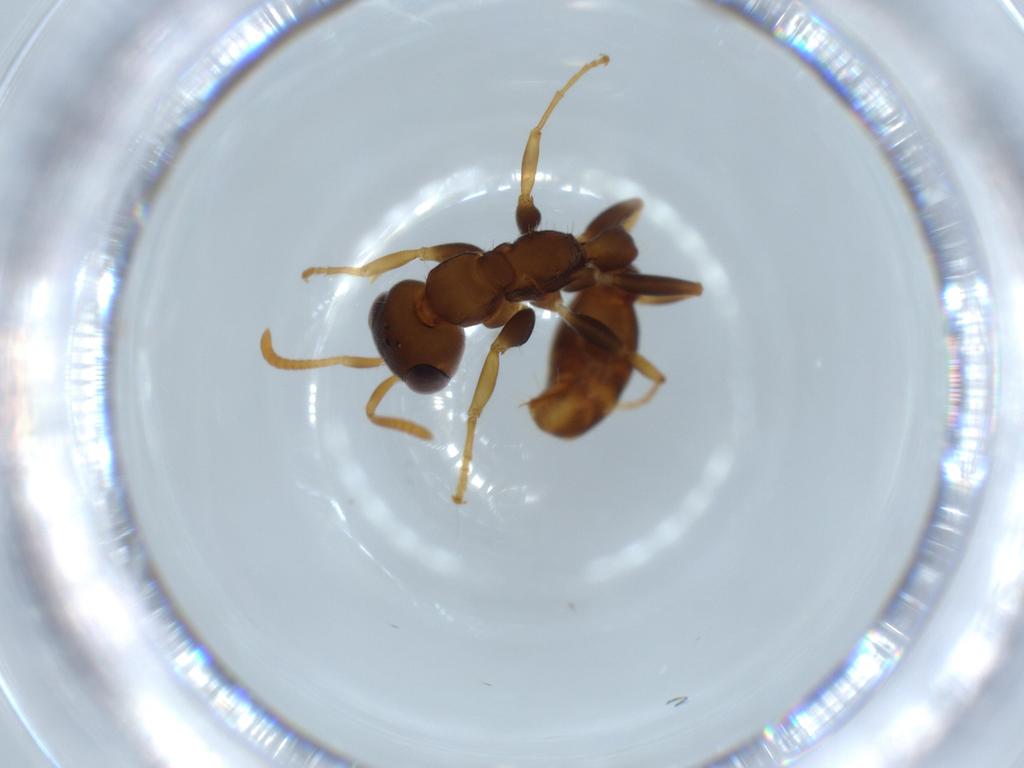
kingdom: Animalia
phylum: Arthropoda
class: Insecta
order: Hymenoptera
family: Formicidae
